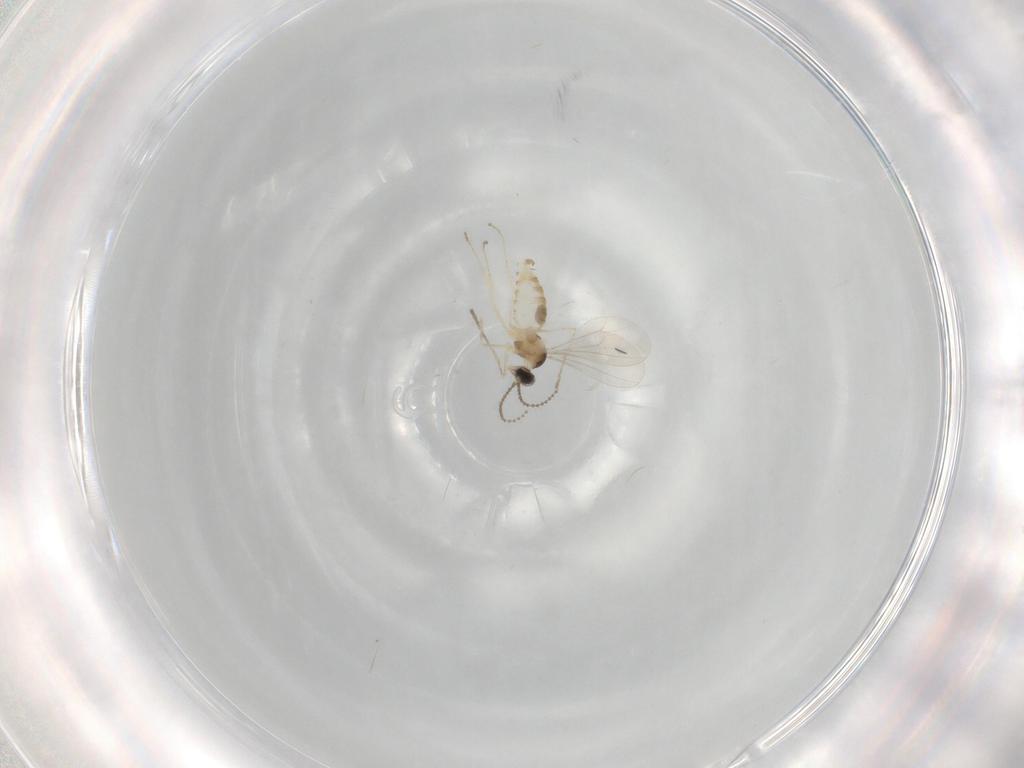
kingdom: Animalia
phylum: Arthropoda
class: Insecta
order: Diptera
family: Cecidomyiidae
